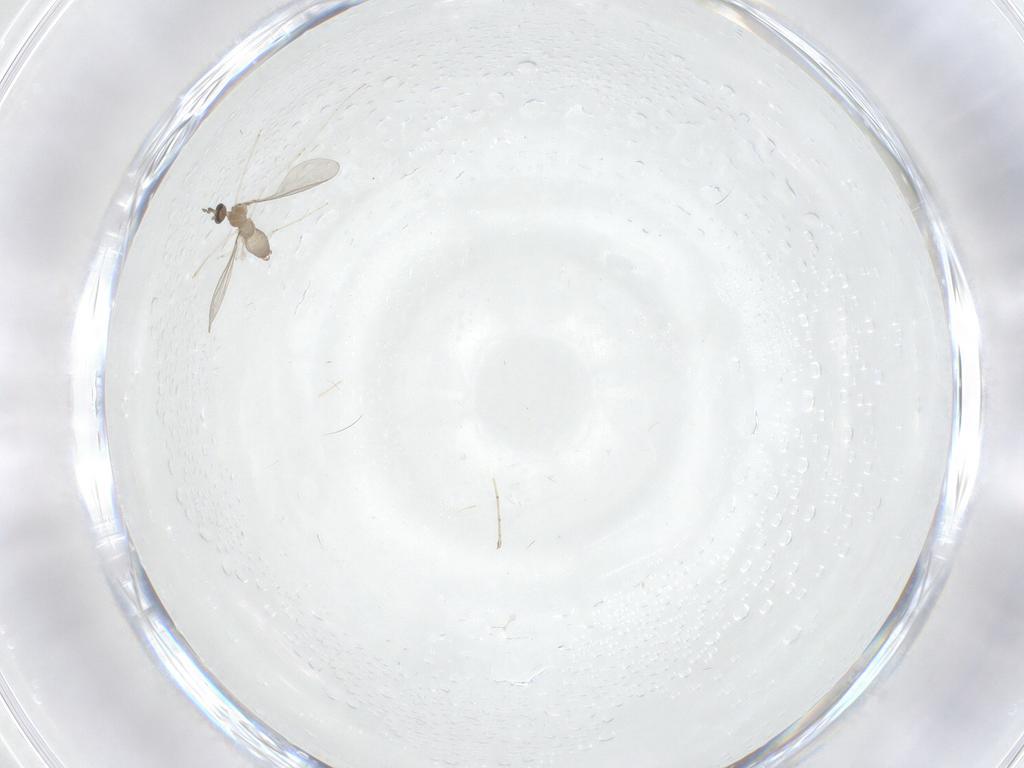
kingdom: Animalia
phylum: Arthropoda
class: Insecta
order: Diptera
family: Cecidomyiidae
